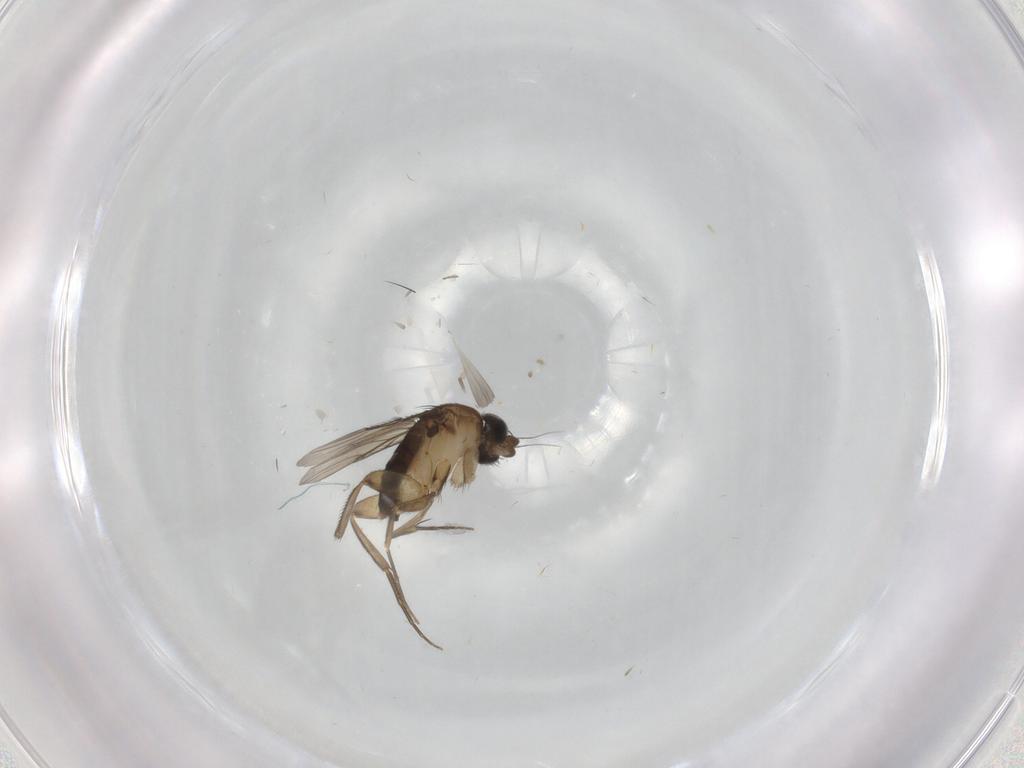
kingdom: Animalia
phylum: Arthropoda
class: Insecta
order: Diptera
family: Phoridae
